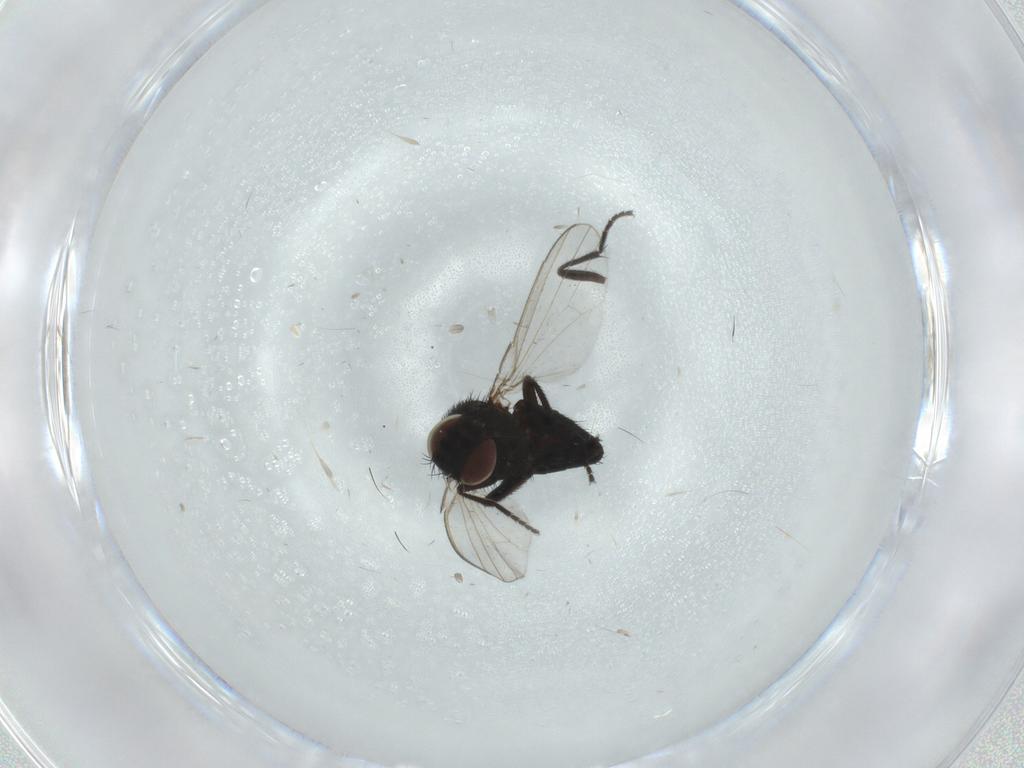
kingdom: Animalia
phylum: Arthropoda
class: Insecta
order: Diptera
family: Milichiidae
